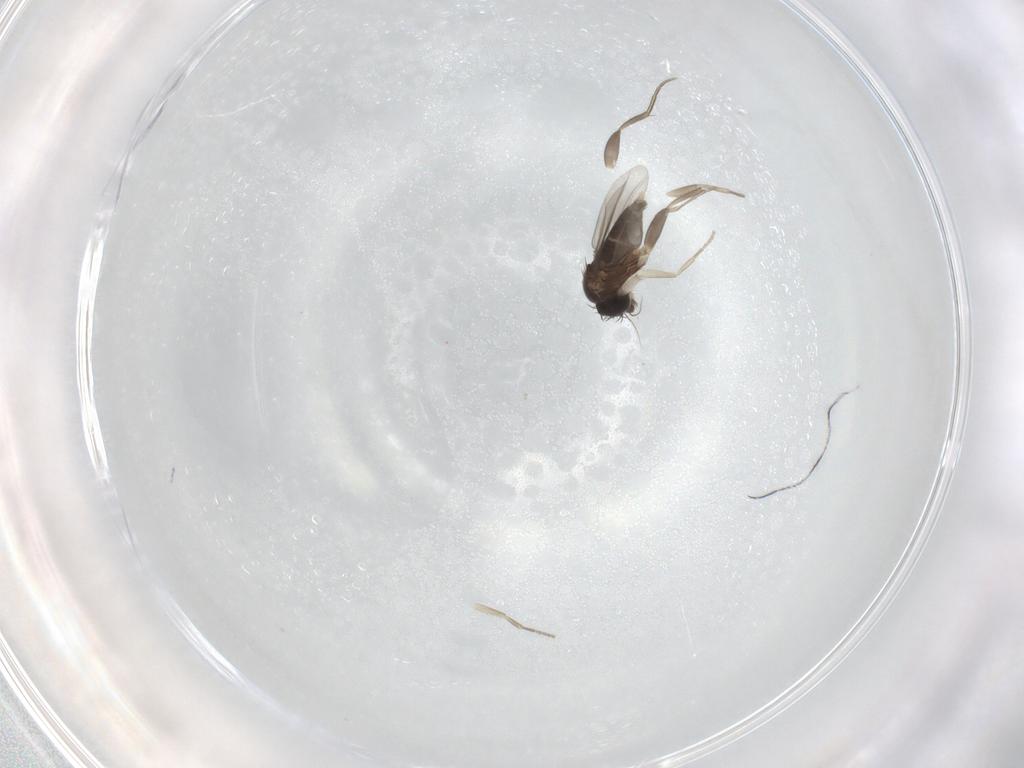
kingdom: Animalia
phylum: Arthropoda
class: Insecta
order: Diptera
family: Phoridae
